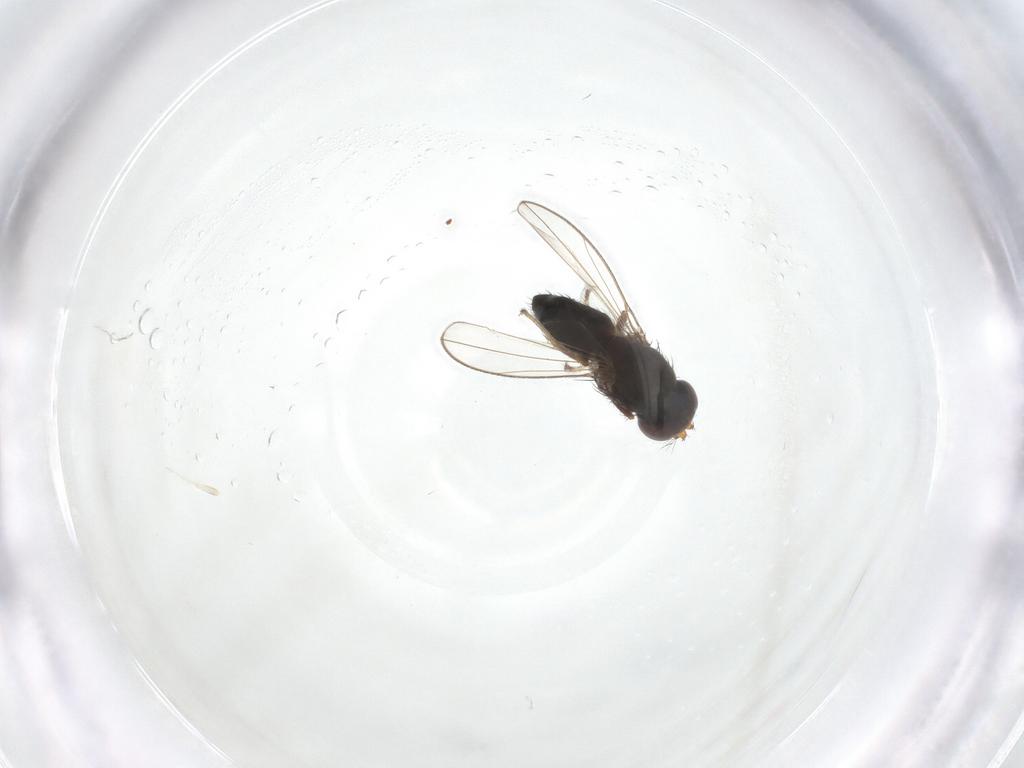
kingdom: Animalia
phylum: Arthropoda
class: Insecta
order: Diptera
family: Ephydridae
